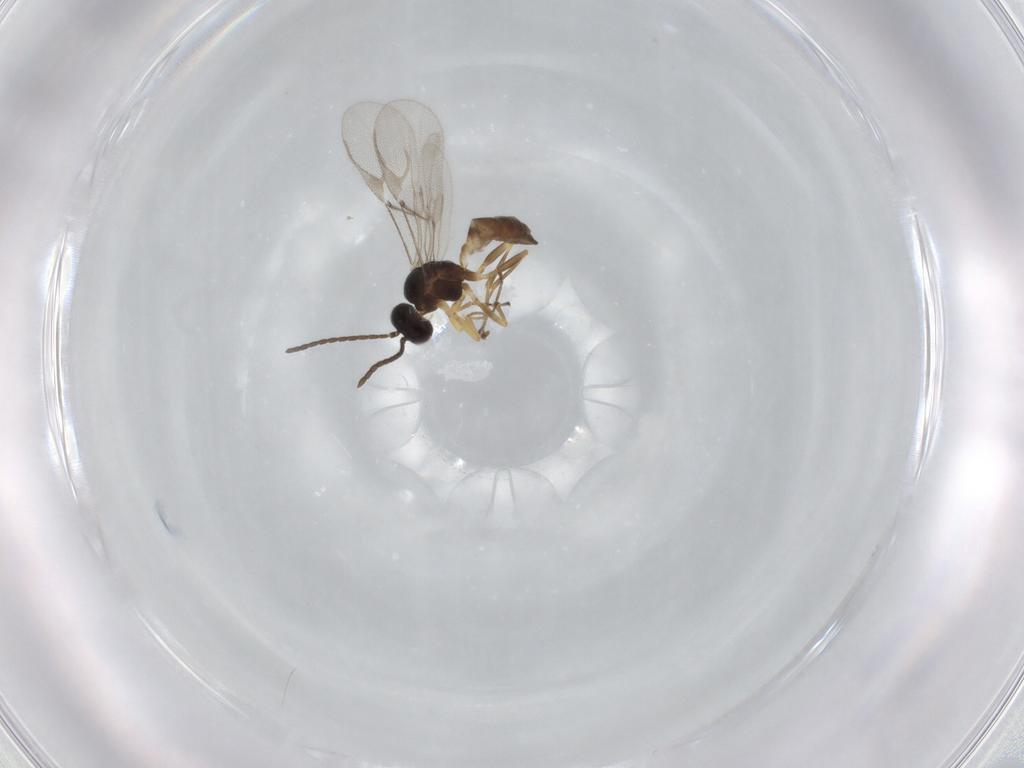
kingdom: Animalia
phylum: Arthropoda
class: Insecta
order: Hymenoptera
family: Braconidae
